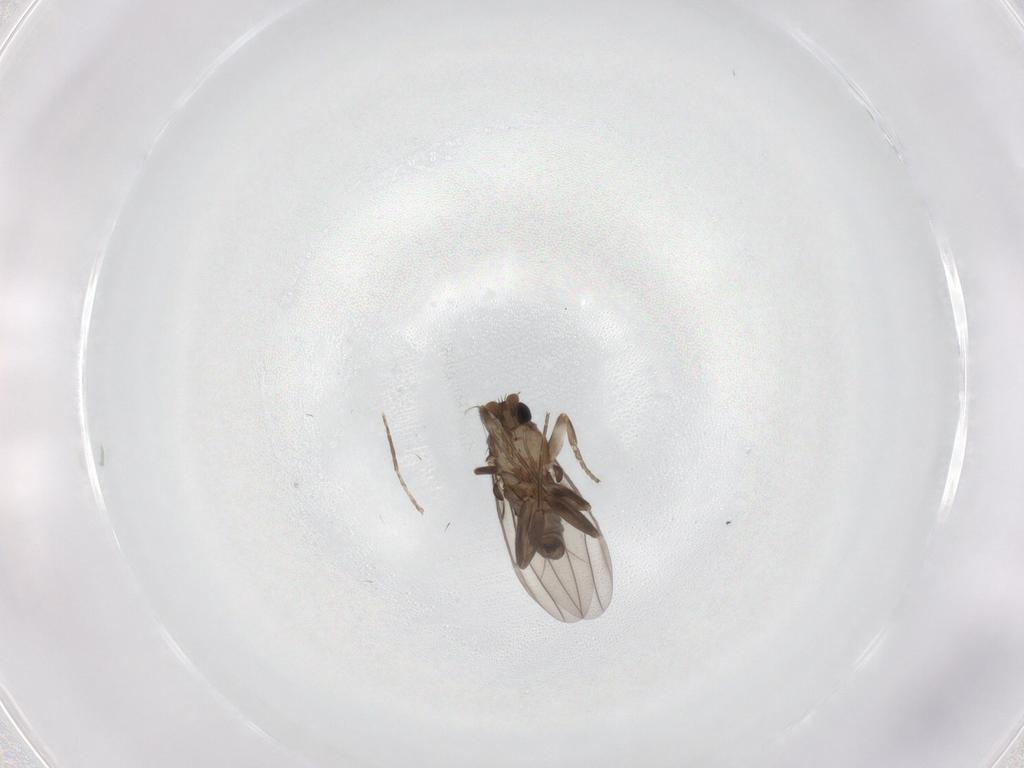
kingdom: Animalia
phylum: Arthropoda
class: Insecta
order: Diptera
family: Phoridae
